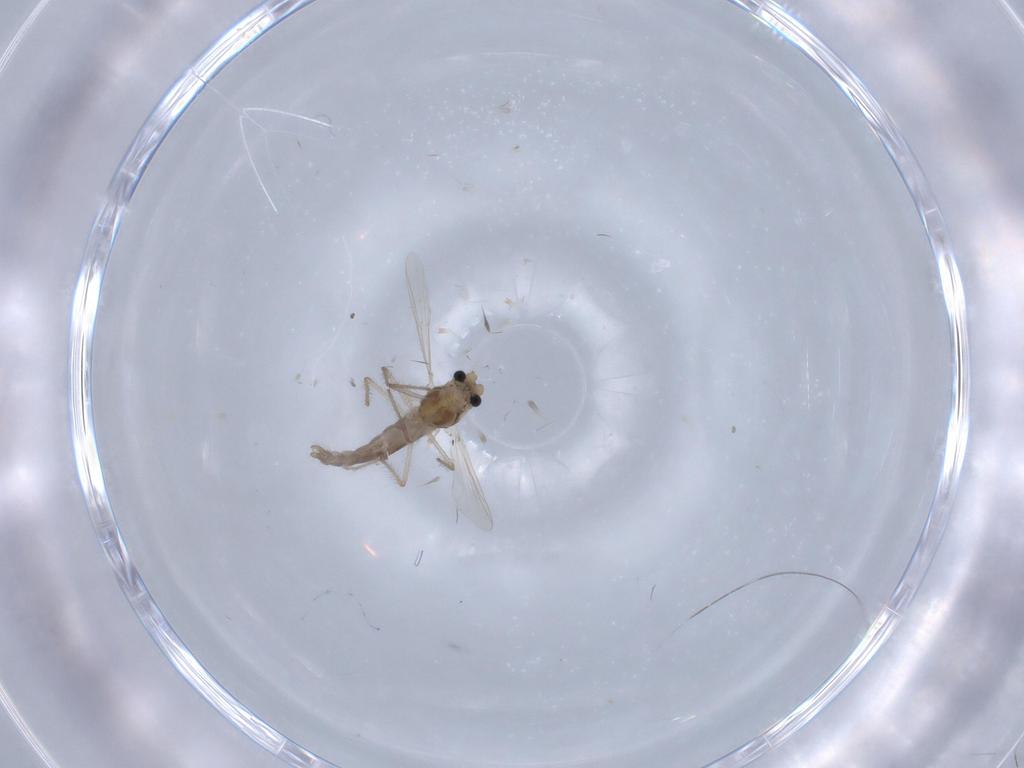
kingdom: Animalia
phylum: Arthropoda
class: Insecta
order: Diptera
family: Chironomidae
